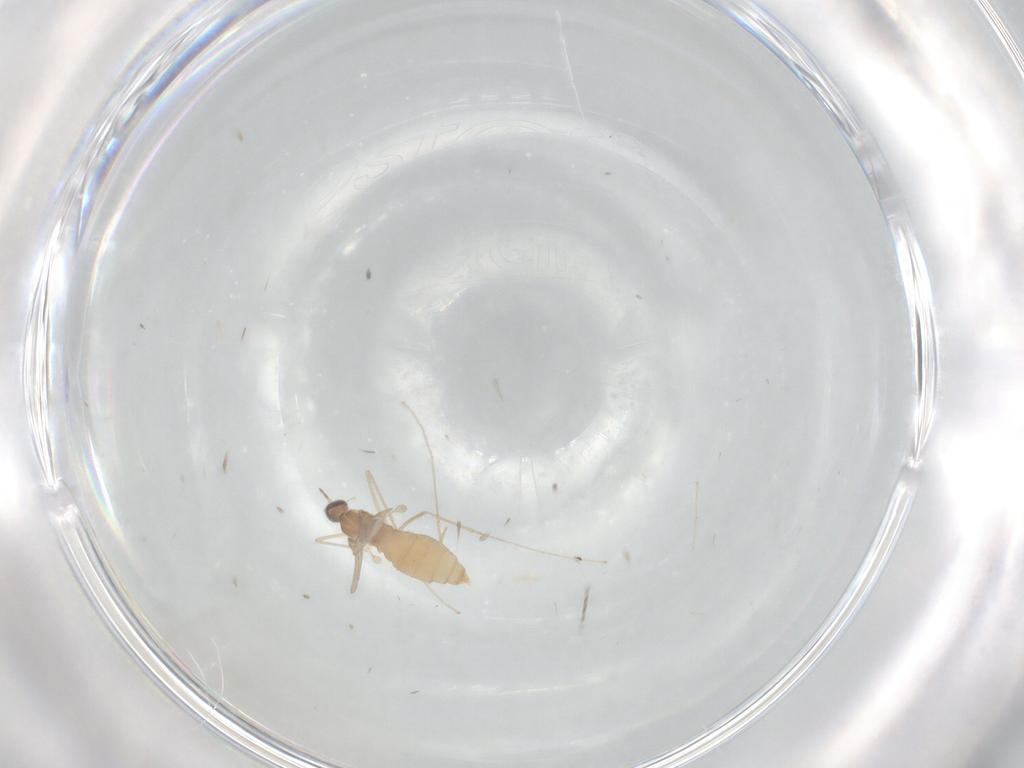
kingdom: Animalia
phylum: Arthropoda
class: Insecta
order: Diptera
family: Cecidomyiidae
